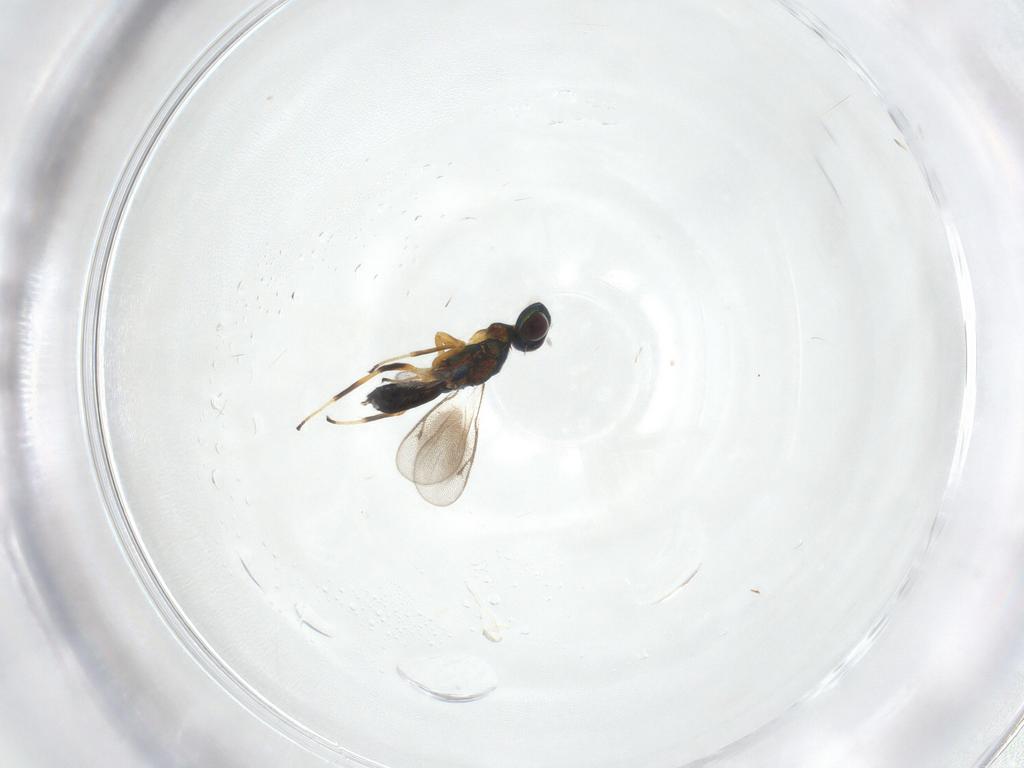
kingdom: Animalia
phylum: Arthropoda
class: Insecta
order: Hymenoptera
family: Eupelmidae
